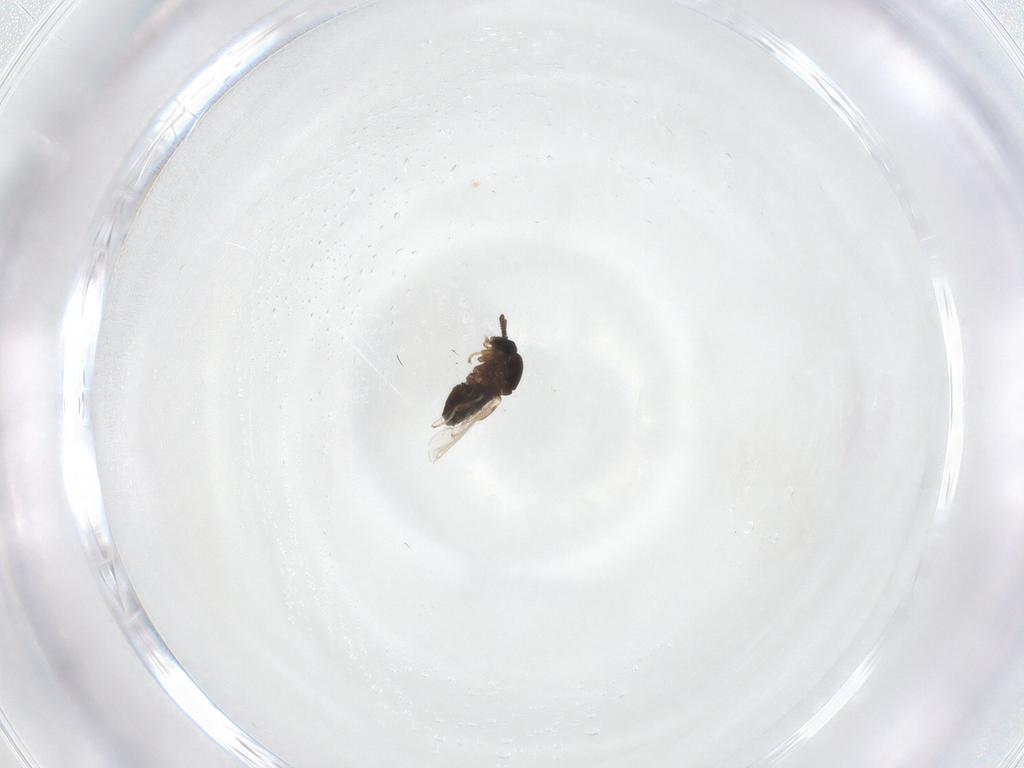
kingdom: Animalia
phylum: Arthropoda
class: Insecta
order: Diptera
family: Scatopsidae
